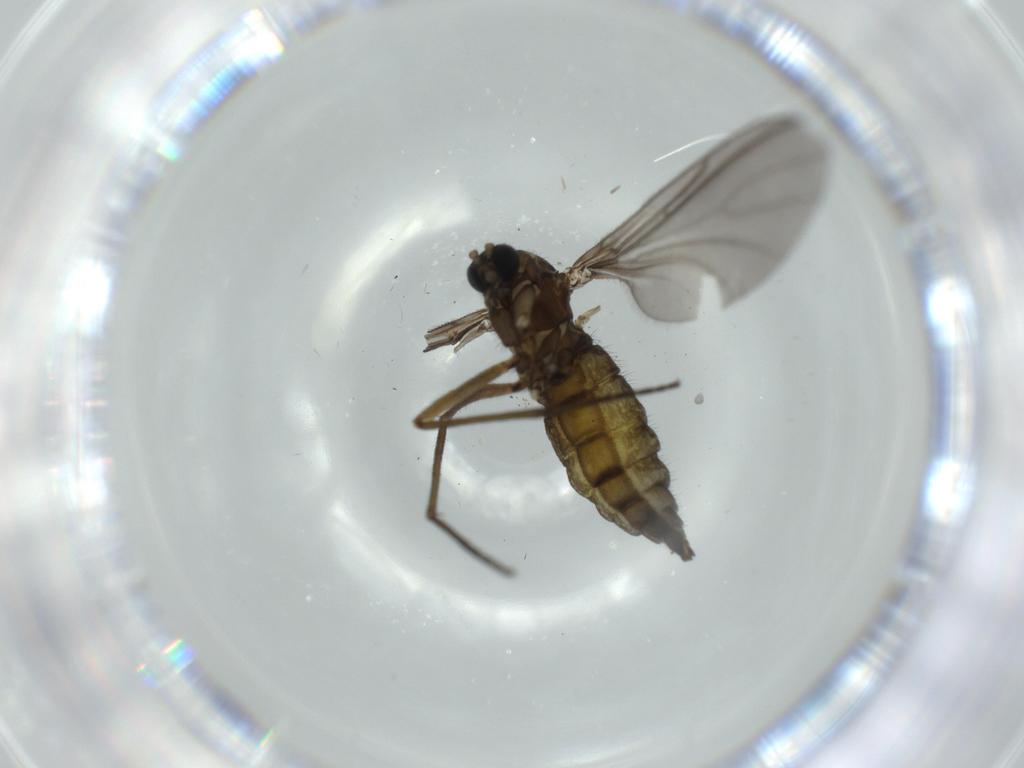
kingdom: Animalia
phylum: Arthropoda
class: Insecta
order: Diptera
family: Sciaridae
